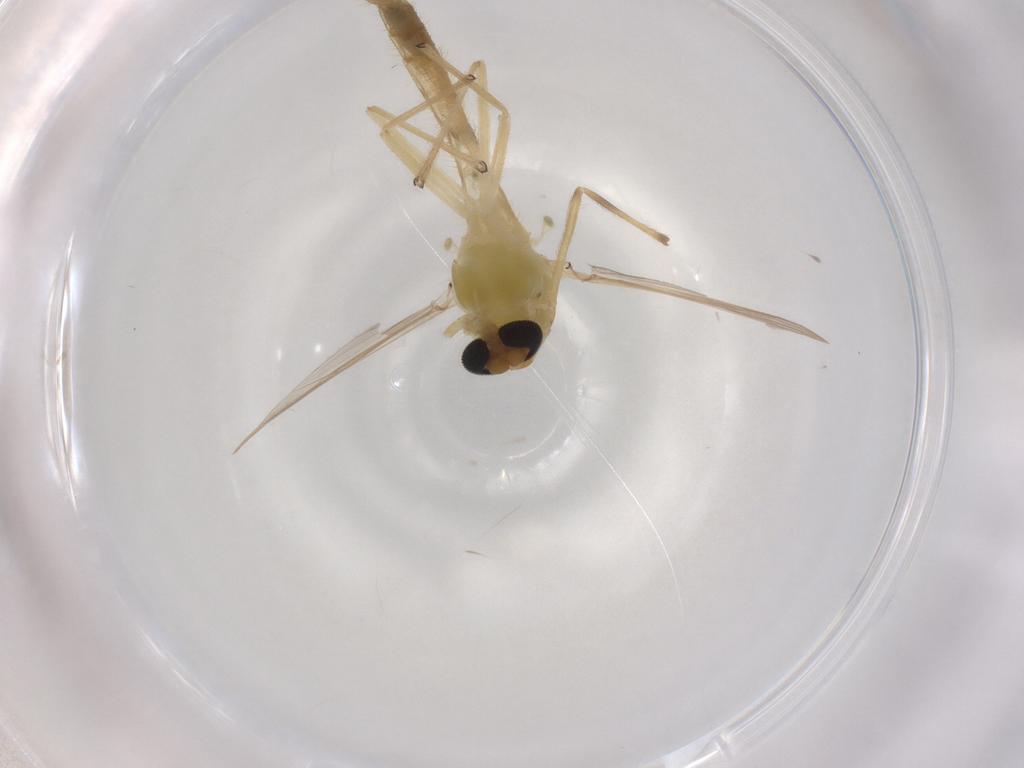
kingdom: Animalia
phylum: Arthropoda
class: Insecta
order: Diptera
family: Chironomidae
